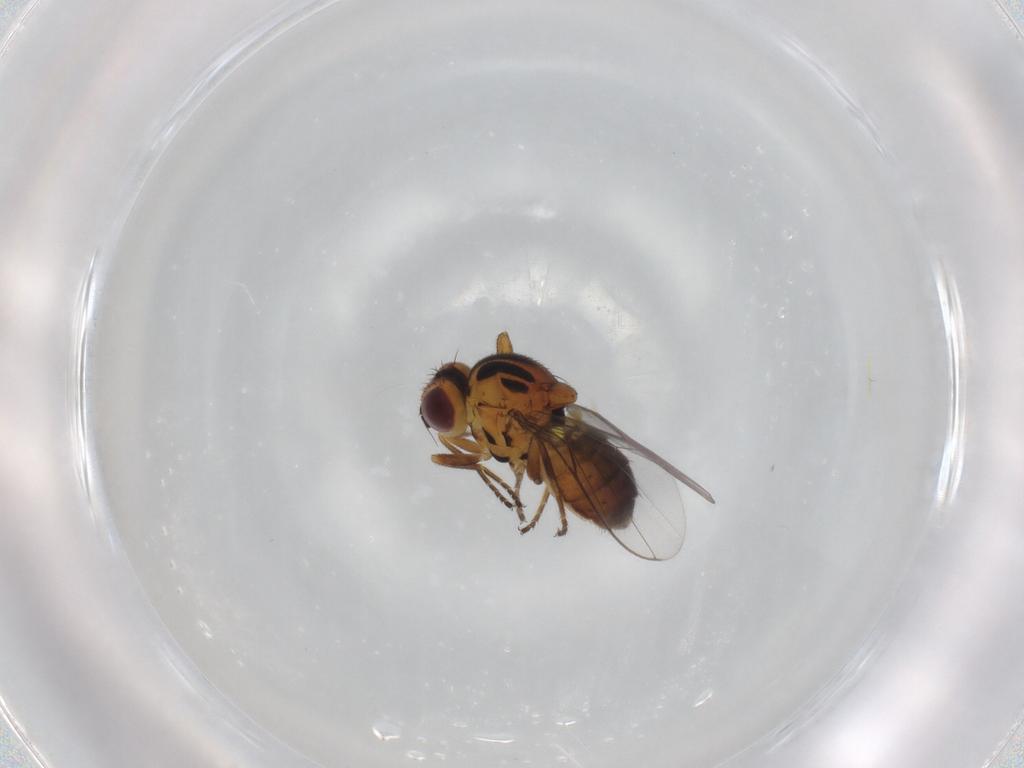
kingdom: Animalia
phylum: Arthropoda
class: Insecta
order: Diptera
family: Chloropidae
